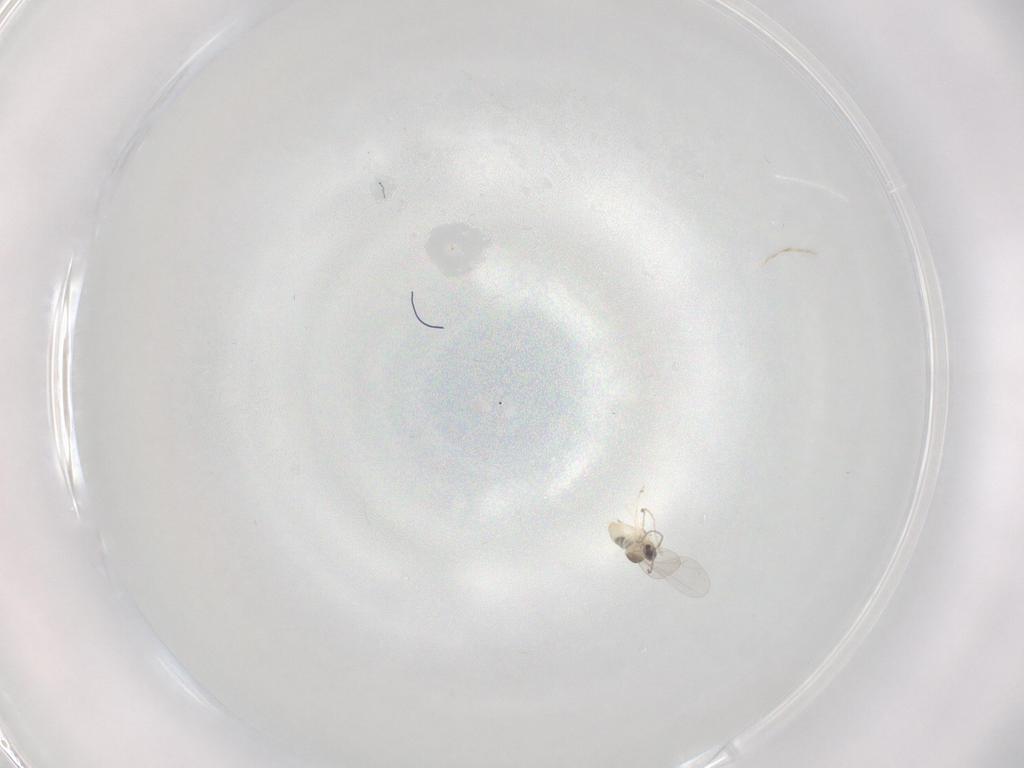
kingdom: Animalia
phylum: Arthropoda
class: Insecta
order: Diptera
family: Cecidomyiidae
